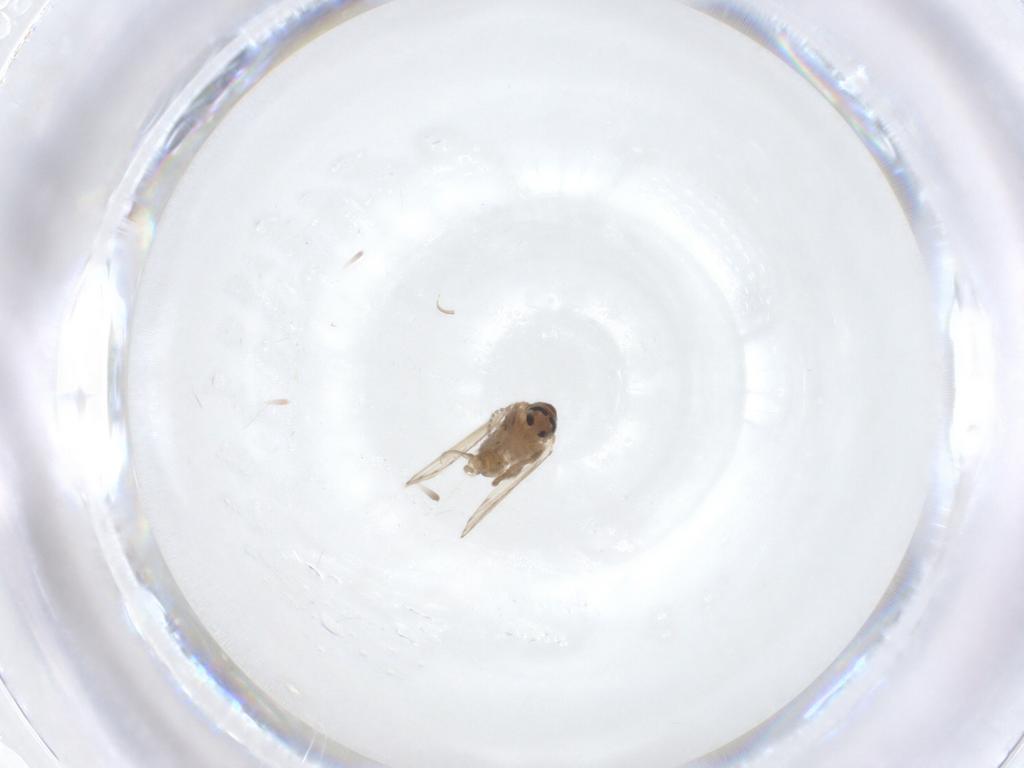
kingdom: Animalia
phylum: Arthropoda
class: Insecta
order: Diptera
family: Psychodidae
